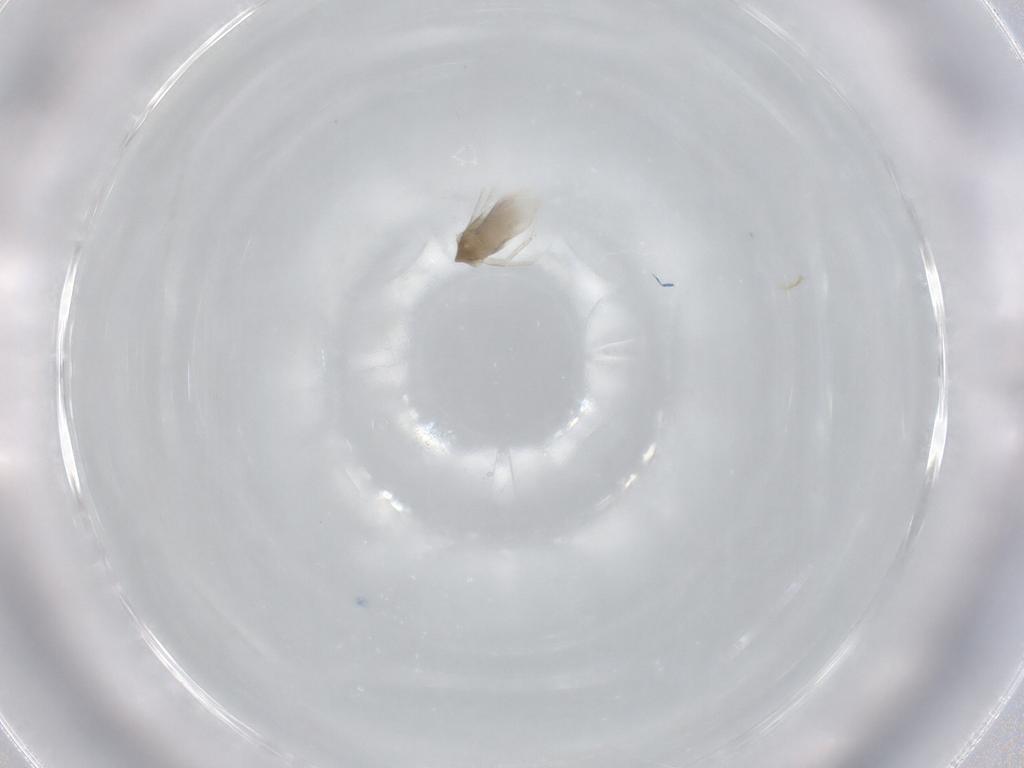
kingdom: Animalia
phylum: Arthropoda
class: Branchiopoda
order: Diplostraca
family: Daphniidae
